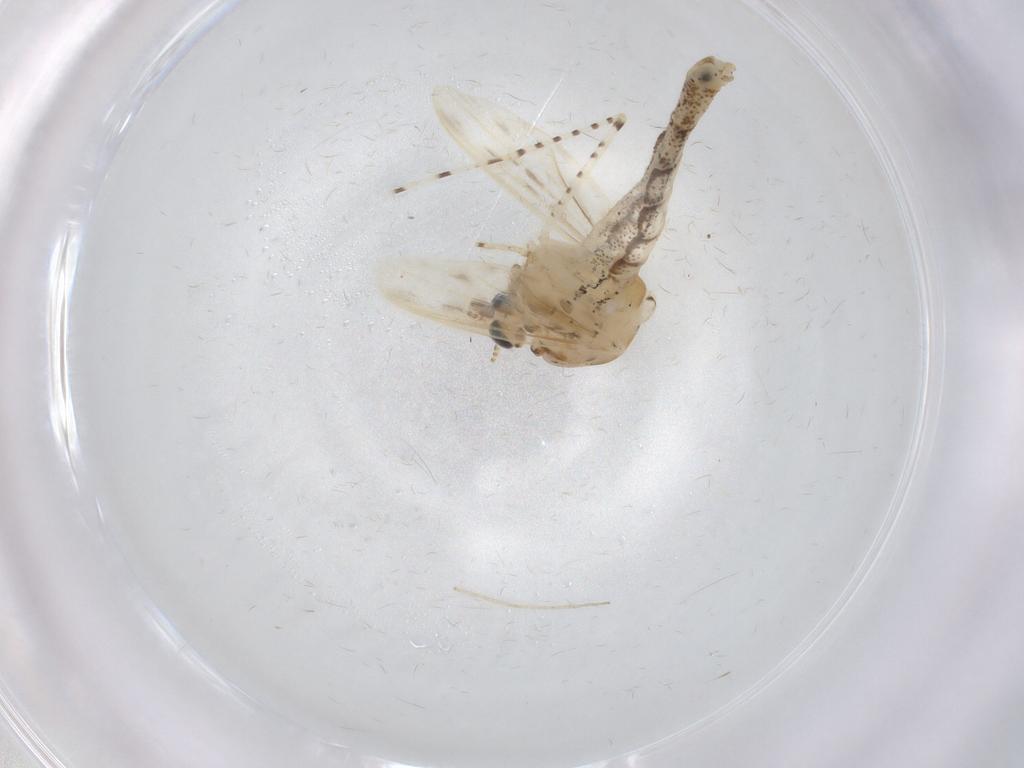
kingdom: Animalia
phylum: Arthropoda
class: Insecta
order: Diptera
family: Chaoboridae
